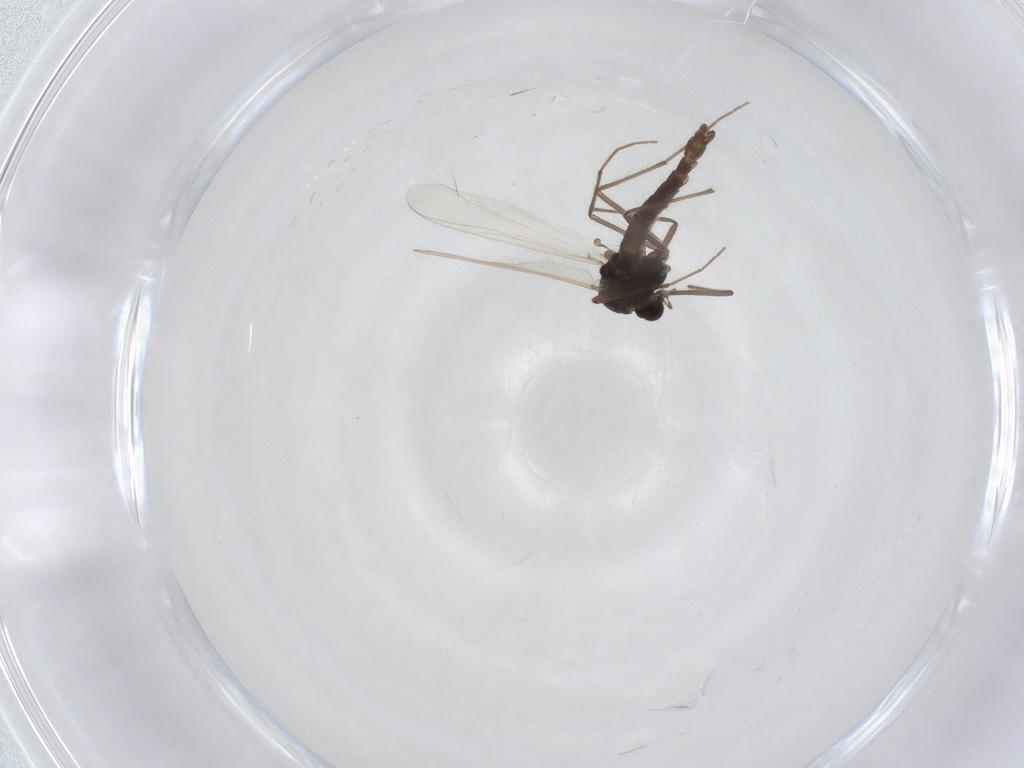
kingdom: Animalia
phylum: Arthropoda
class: Insecta
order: Diptera
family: Chironomidae
